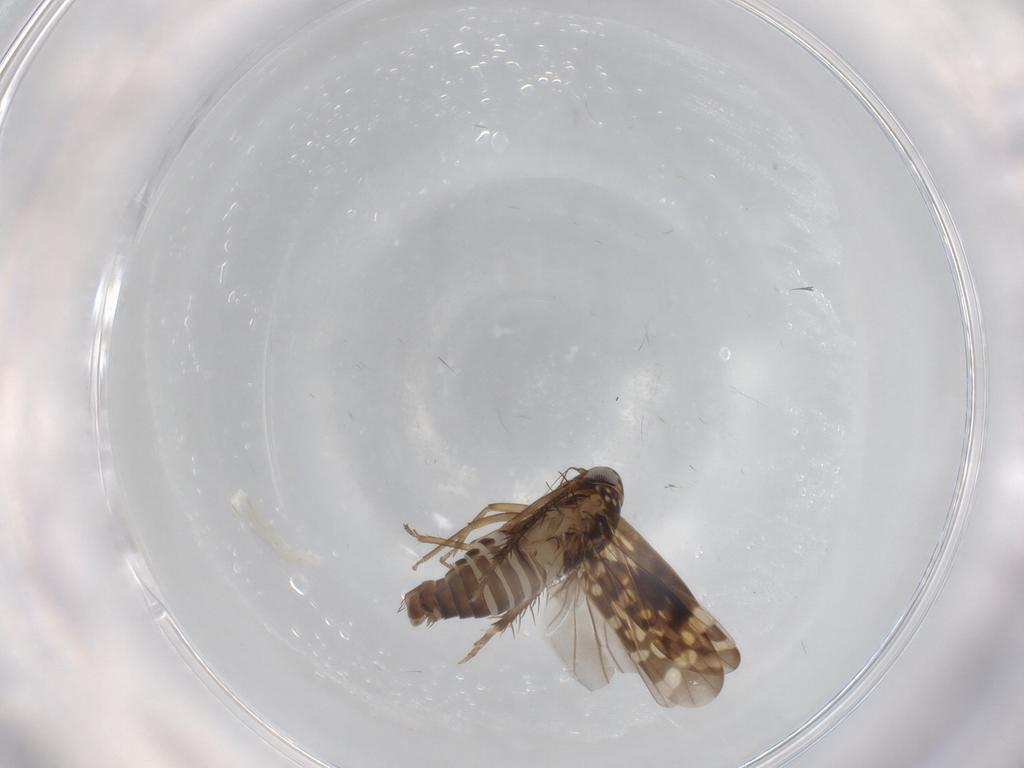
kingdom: Animalia
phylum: Arthropoda
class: Insecta
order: Hemiptera
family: Cicadellidae
